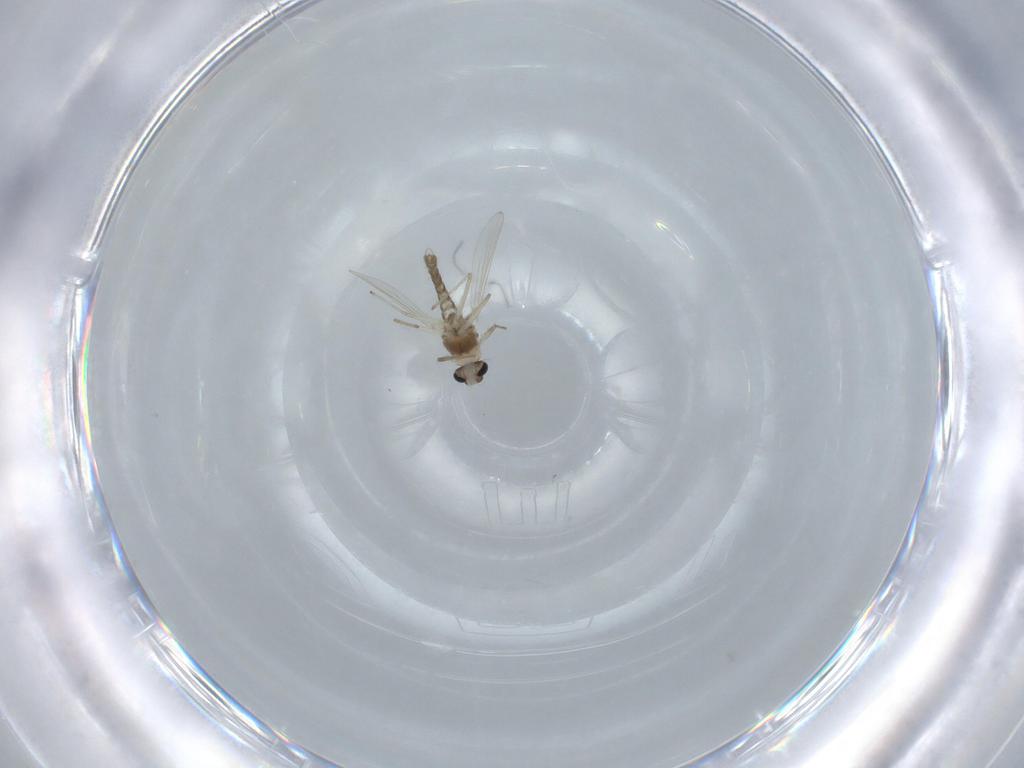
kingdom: Animalia
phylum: Arthropoda
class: Insecta
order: Diptera
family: Chironomidae
